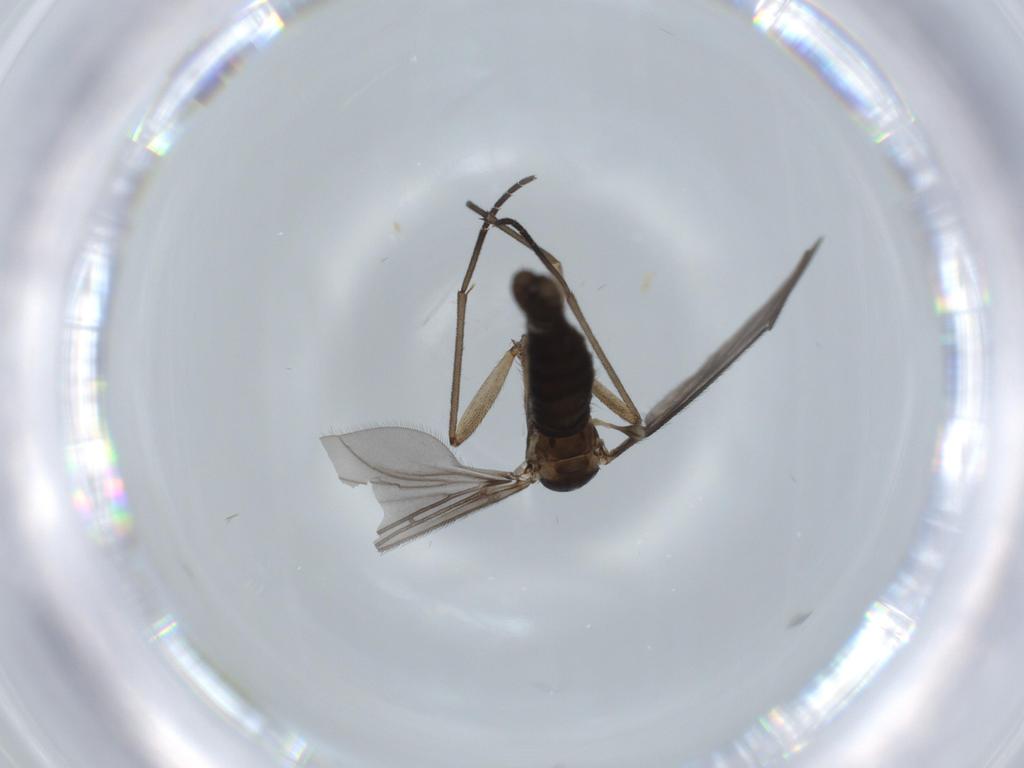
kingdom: Animalia
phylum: Arthropoda
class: Insecta
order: Diptera
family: Sciaridae
